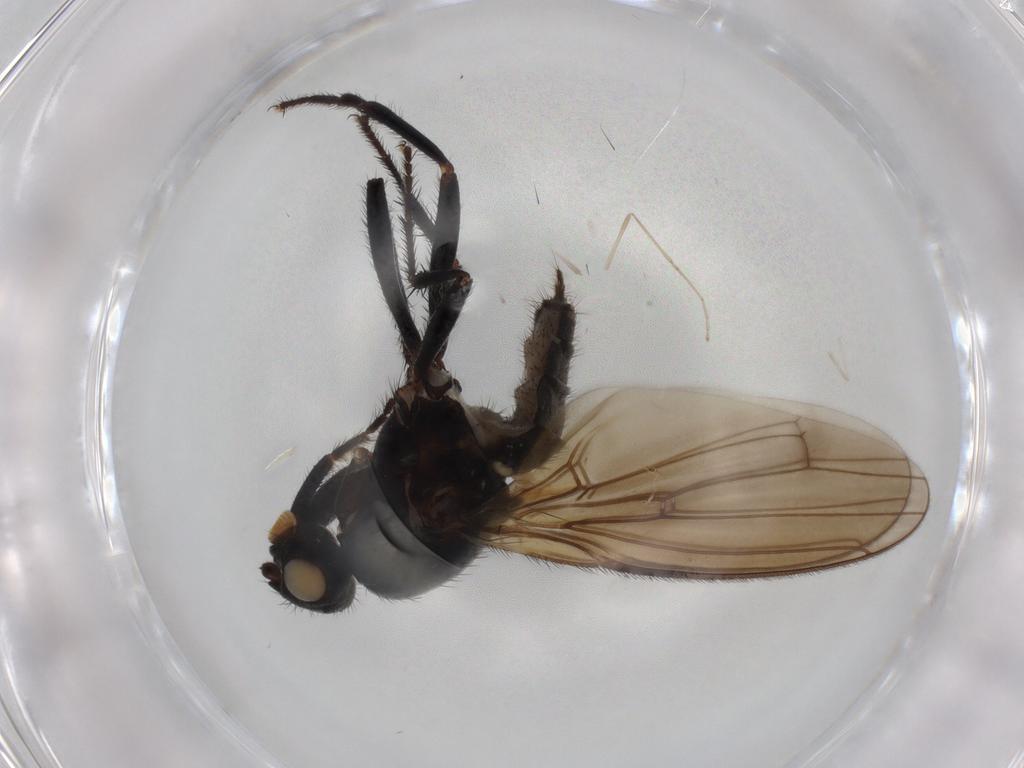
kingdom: Animalia
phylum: Arthropoda
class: Insecta
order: Diptera
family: Sphaeroceridae
